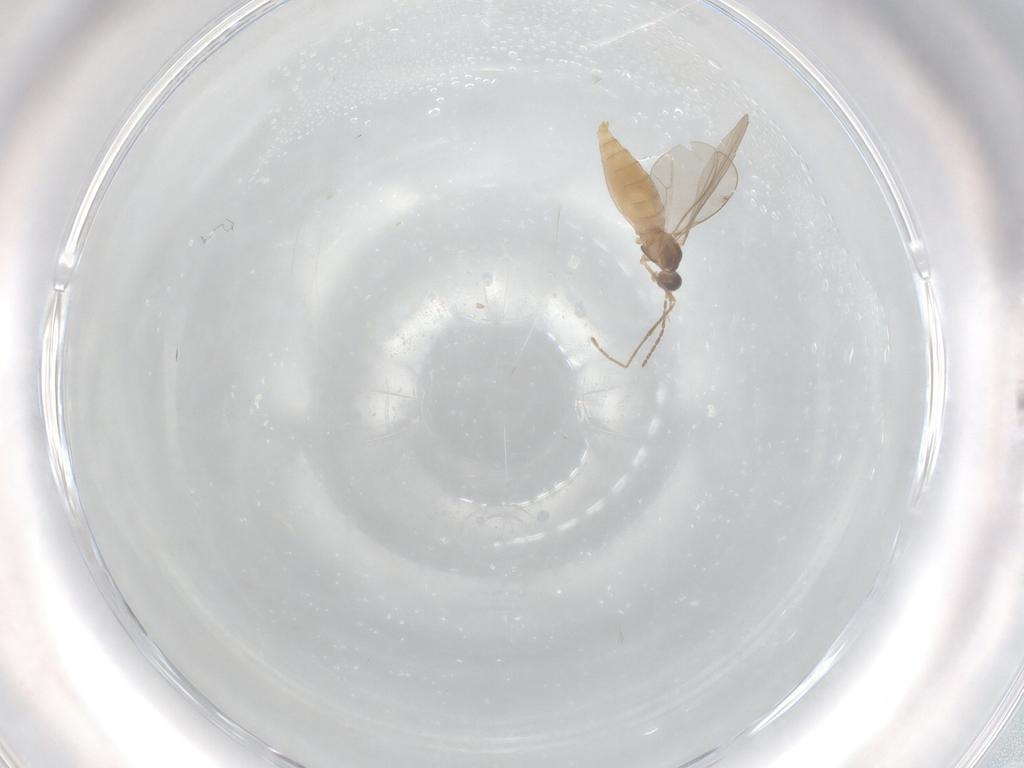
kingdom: Animalia
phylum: Arthropoda
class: Insecta
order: Diptera
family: Cecidomyiidae
